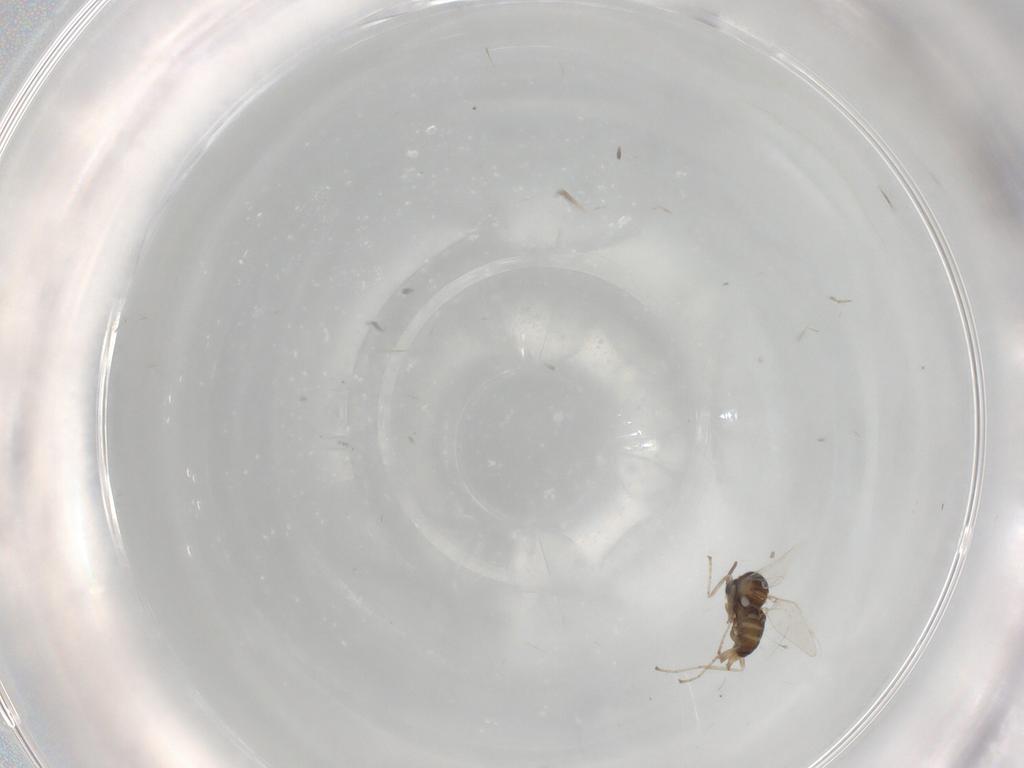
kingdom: Animalia
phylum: Arthropoda
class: Insecta
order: Diptera
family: Cecidomyiidae
